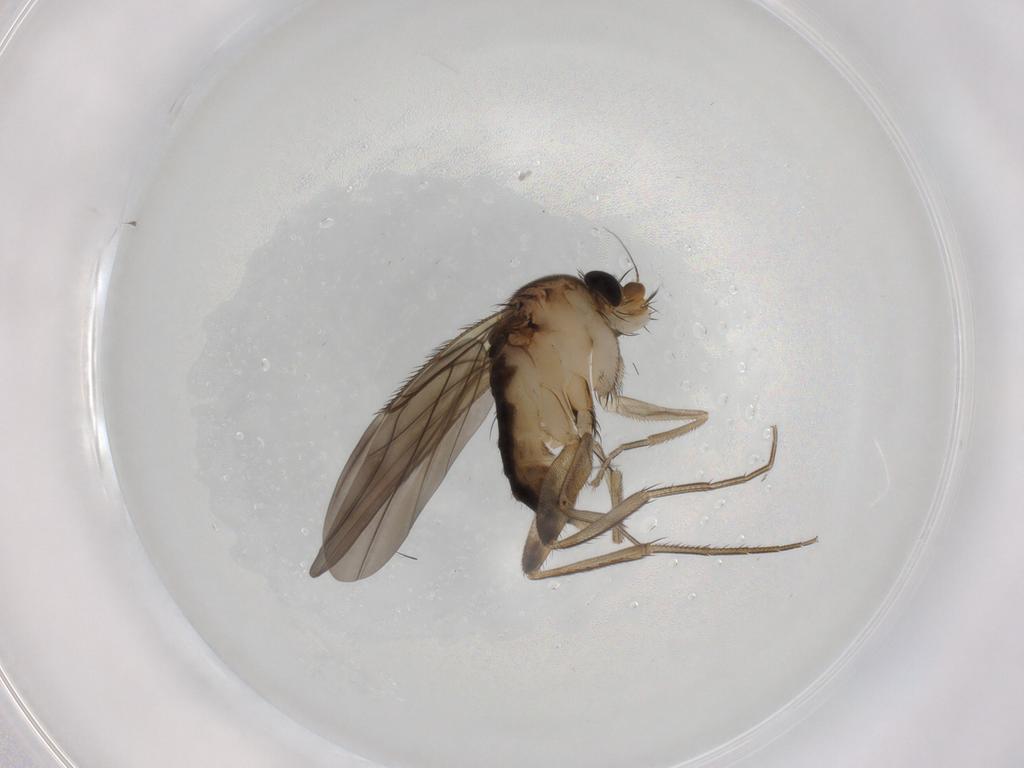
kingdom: Animalia
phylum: Arthropoda
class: Insecta
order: Diptera
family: Phoridae
